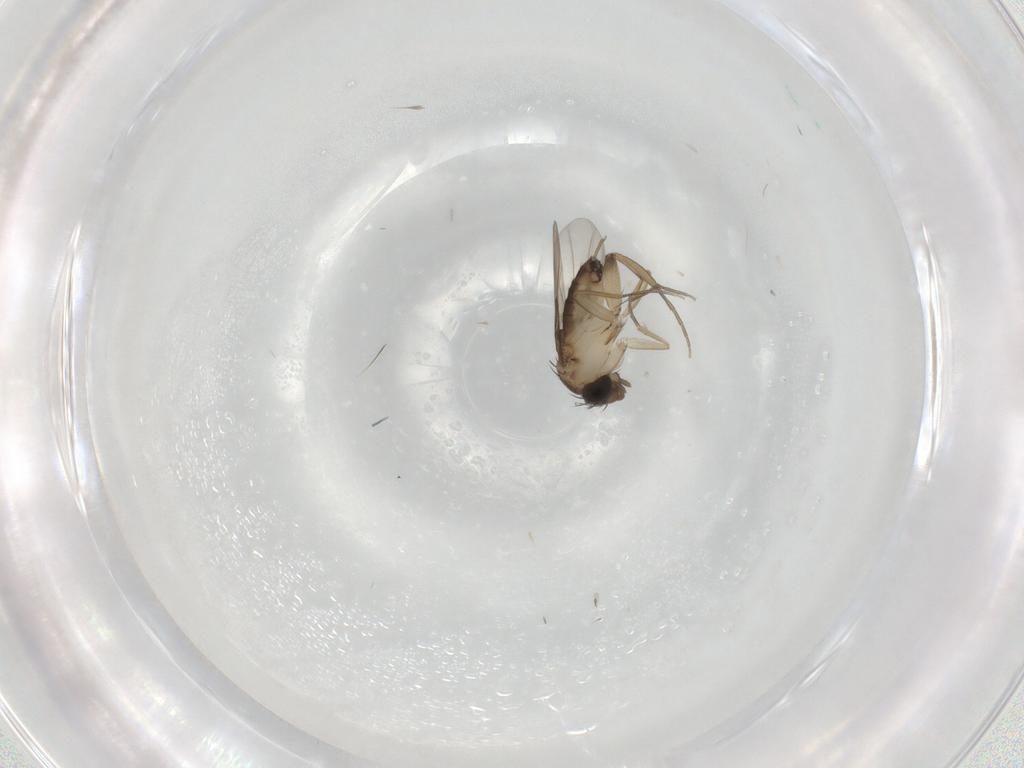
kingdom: Animalia
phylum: Arthropoda
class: Insecta
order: Diptera
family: Phoridae
